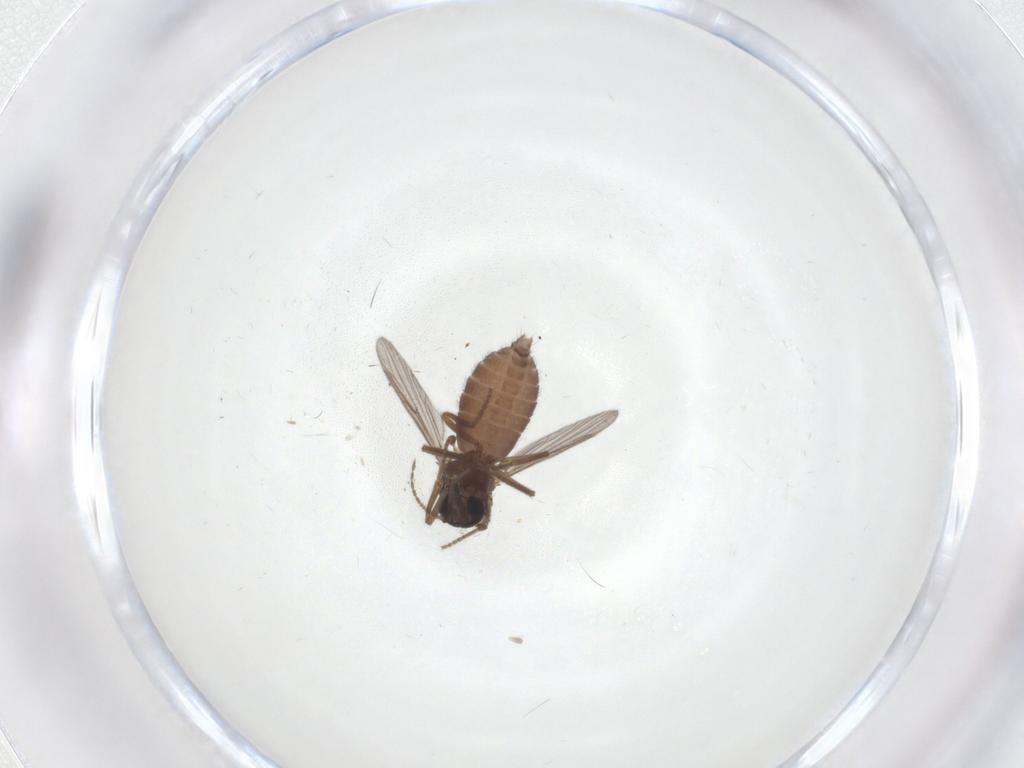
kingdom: Animalia
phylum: Arthropoda
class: Insecta
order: Diptera
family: Ceratopogonidae
